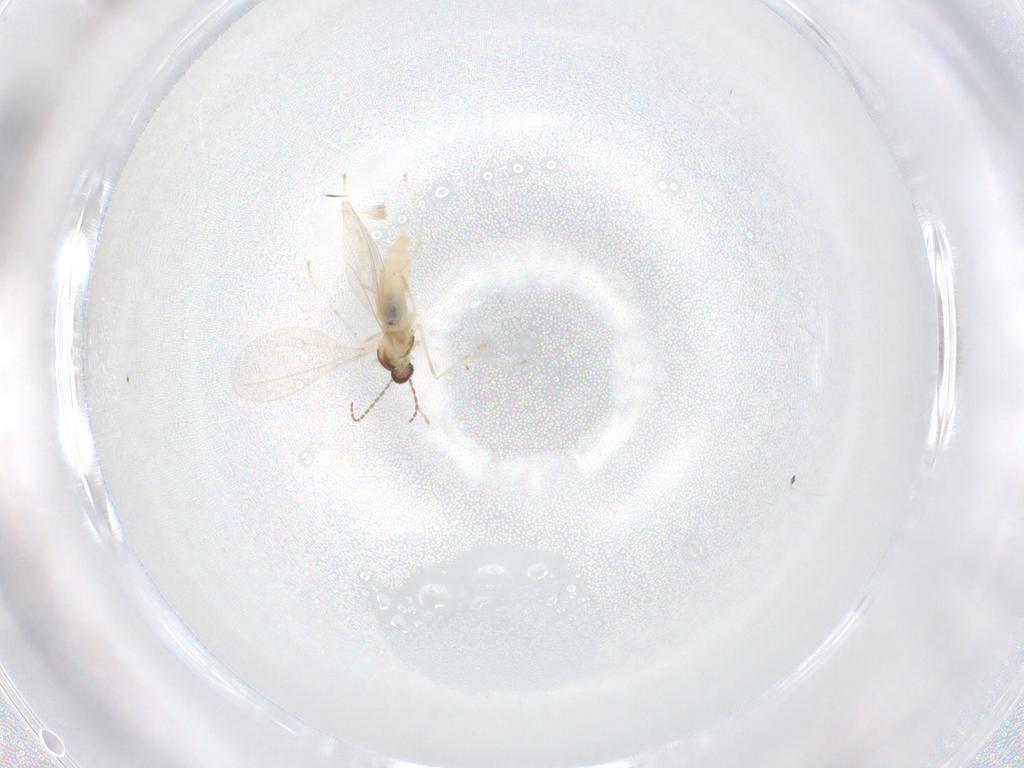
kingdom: Animalia
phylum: Arthropoda
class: Insecta
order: Diptera
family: Cecidomyiidae
